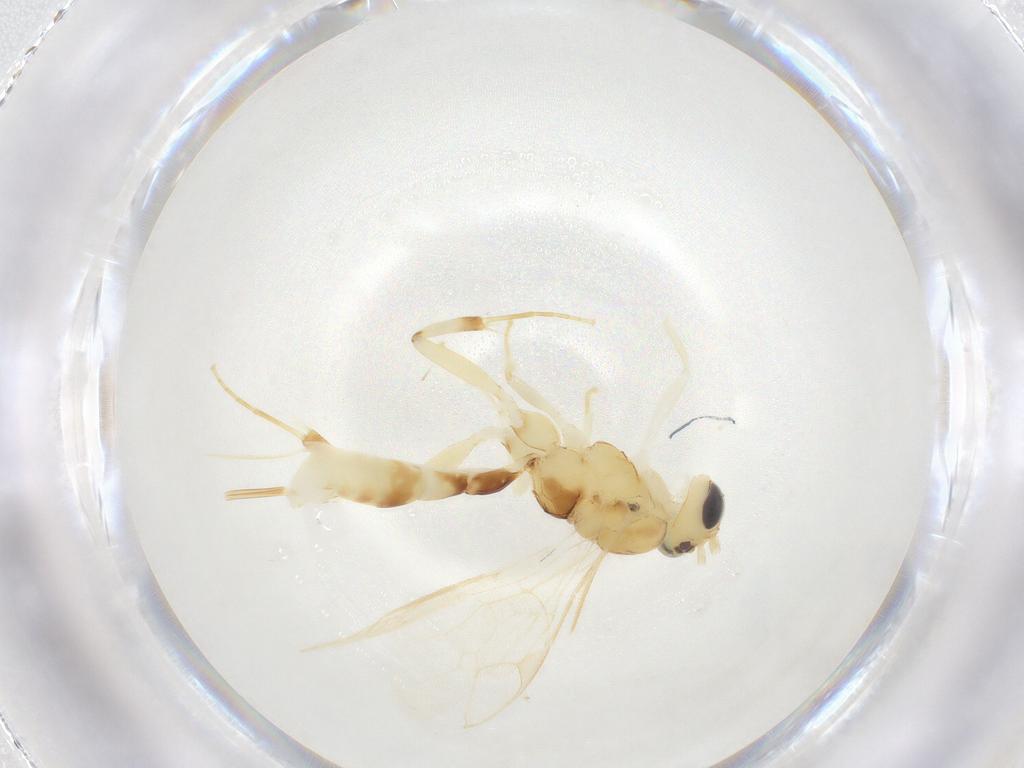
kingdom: Animalia
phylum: Arthropoda
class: Insecta
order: Hymenoptera
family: Ichneumonidae
